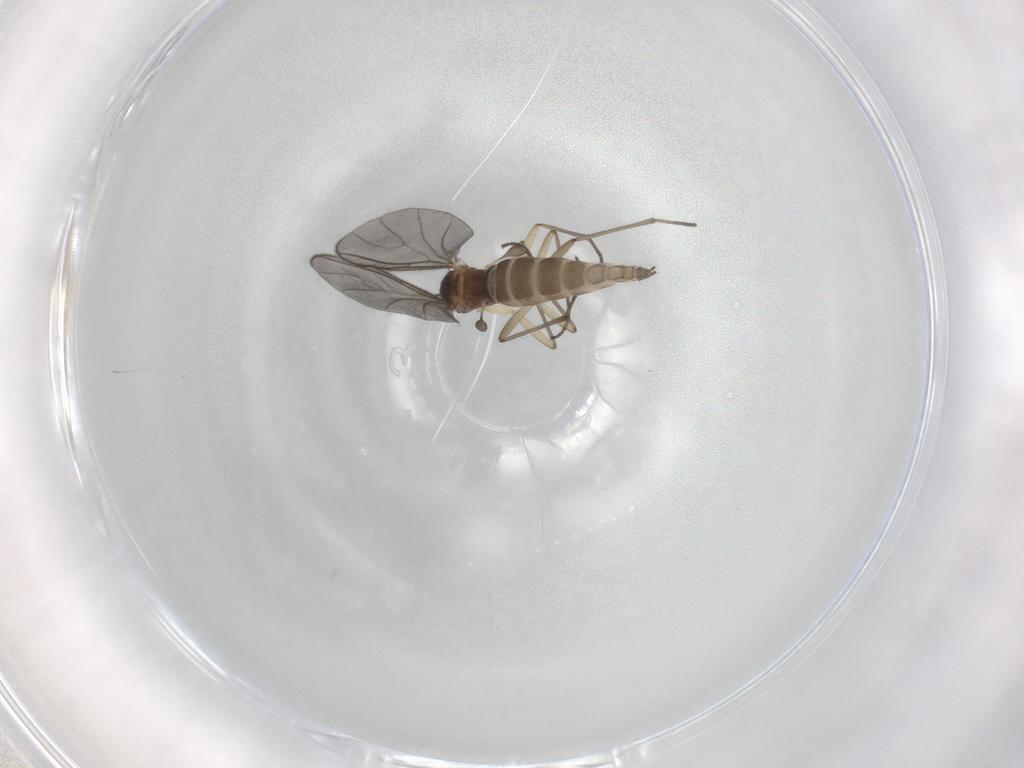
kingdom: Animalia
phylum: Arthropoda
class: Insecta
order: Diptera
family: Sciaridae
